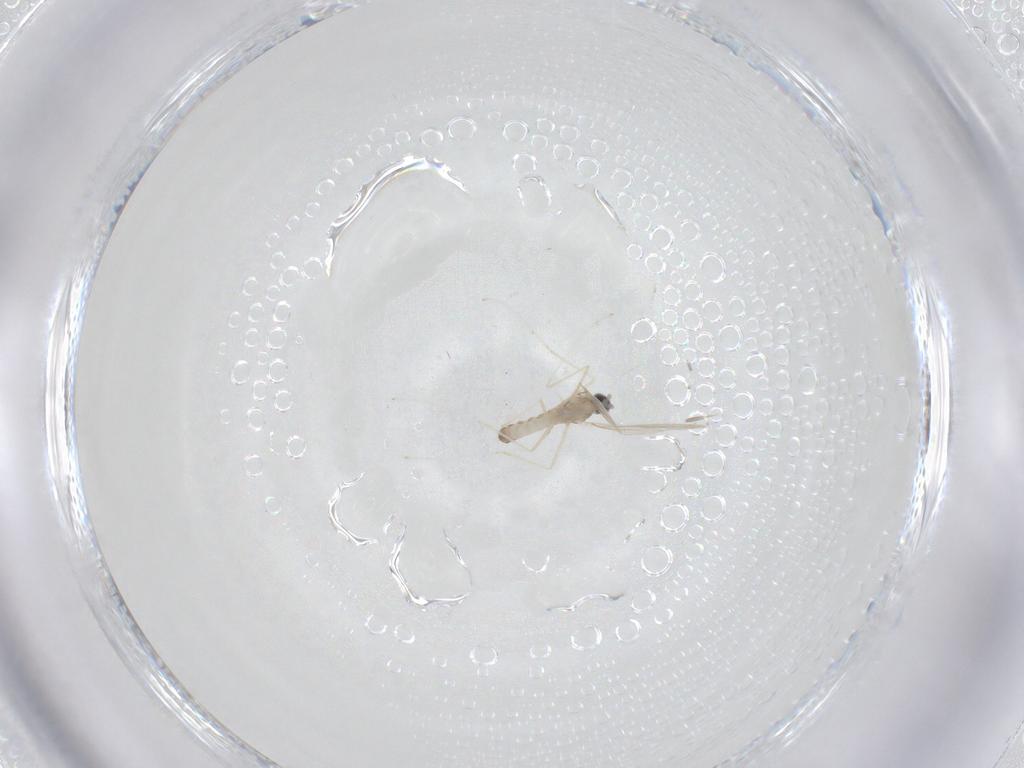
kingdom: Animalia
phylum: Arthropoda
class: Insecta
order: Diptera
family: Cecidomyiidae
